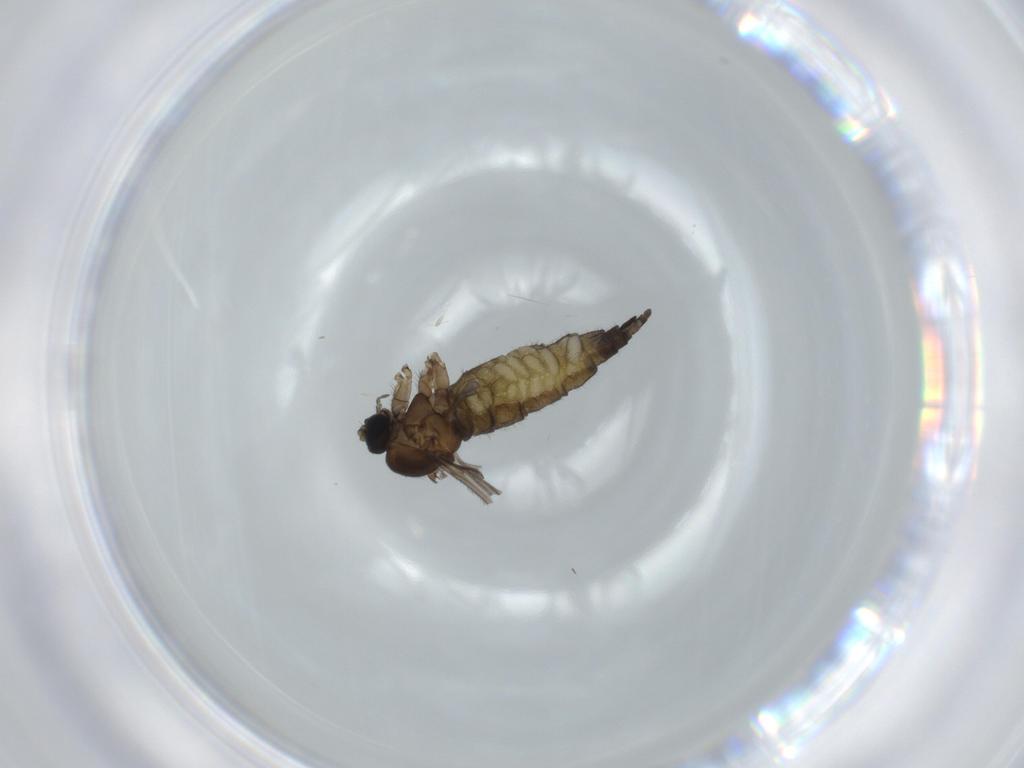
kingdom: Animalia
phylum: Arthropoda
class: Insecta
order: Diptera
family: Sciaridae
